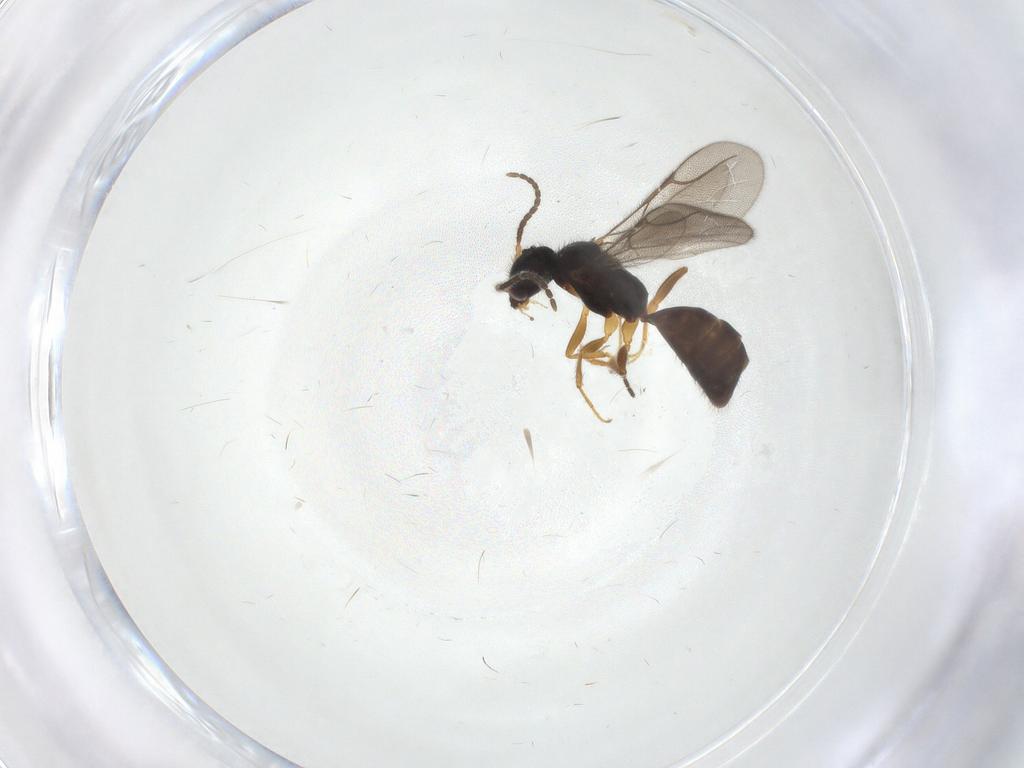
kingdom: Animalia
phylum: Arthropoda
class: Insecta
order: Hymenoptera
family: Bethylidae
